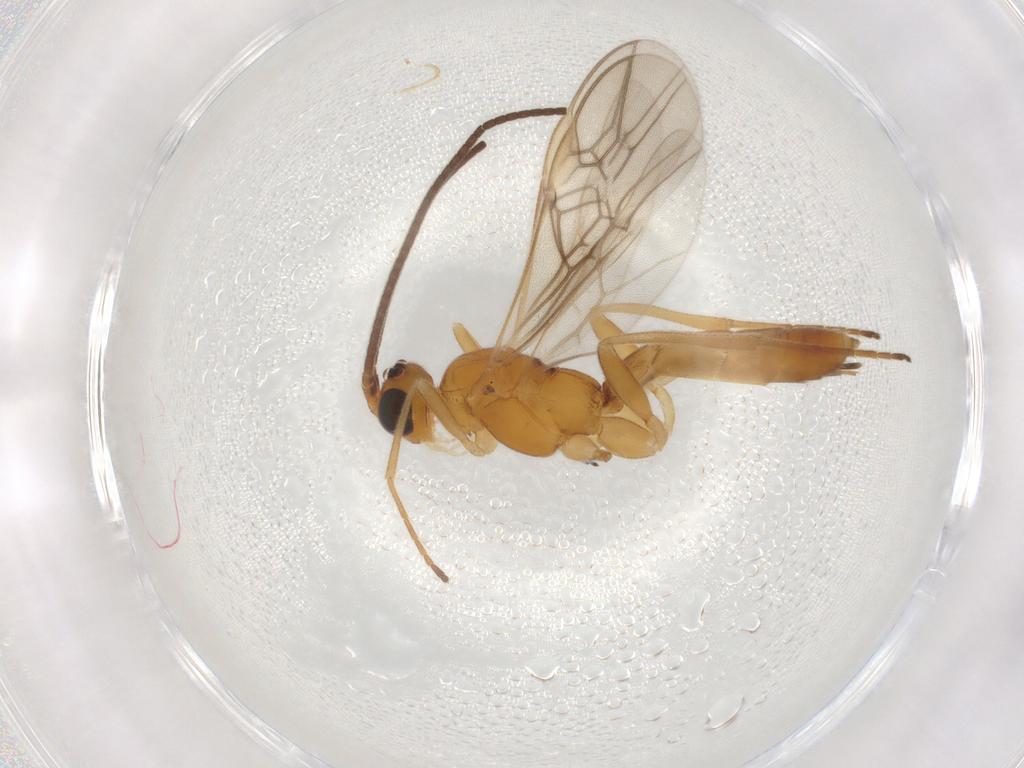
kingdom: Animalia
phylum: Arthropoda
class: Insecta
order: Hymenoptera
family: Braconidae
